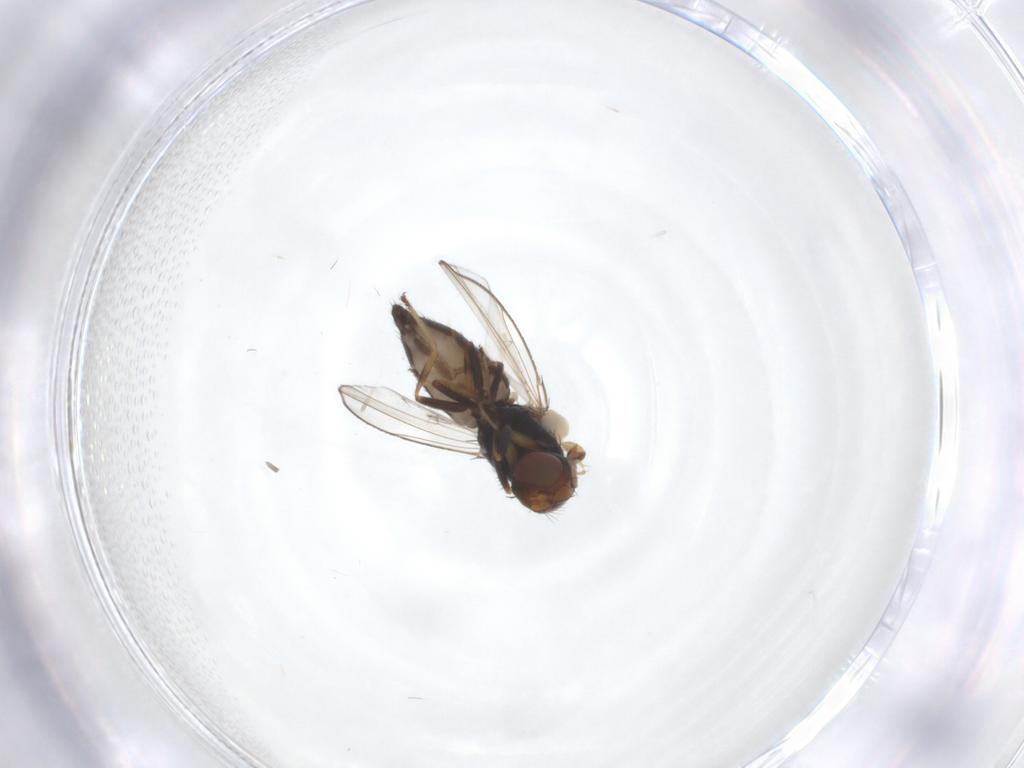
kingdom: Animalia
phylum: Arthropoda
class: Insecta
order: Diptera
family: Ephydridae
